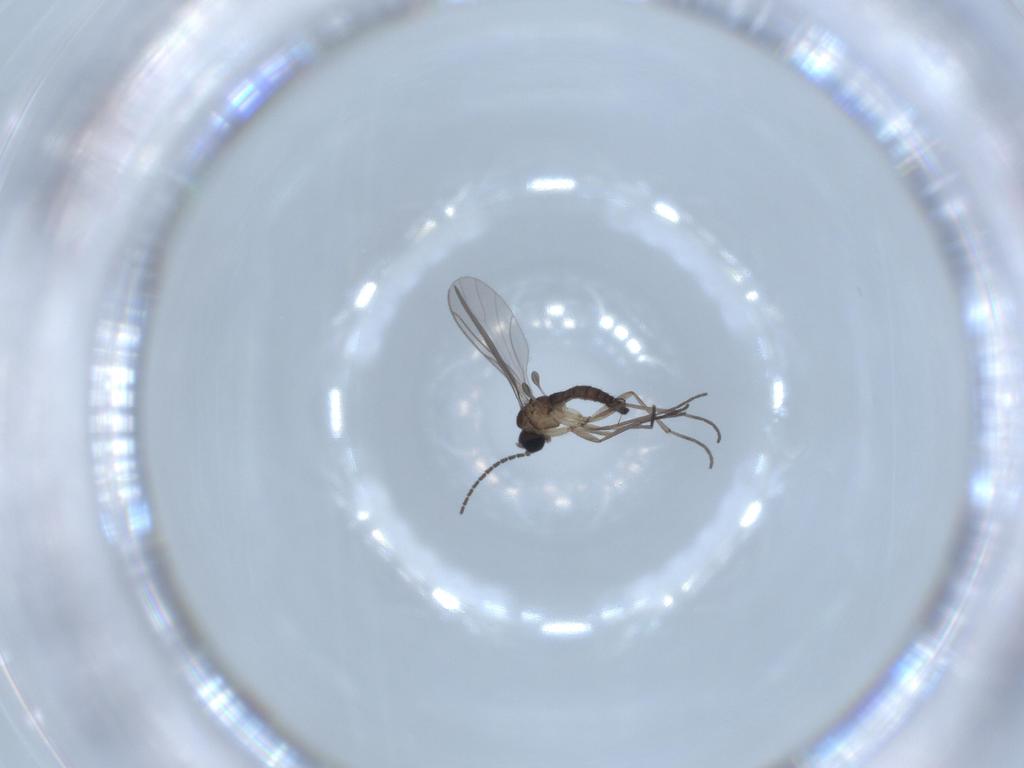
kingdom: Animalia
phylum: Arthropoda
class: Insecta
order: Diptera
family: Sciaridae
